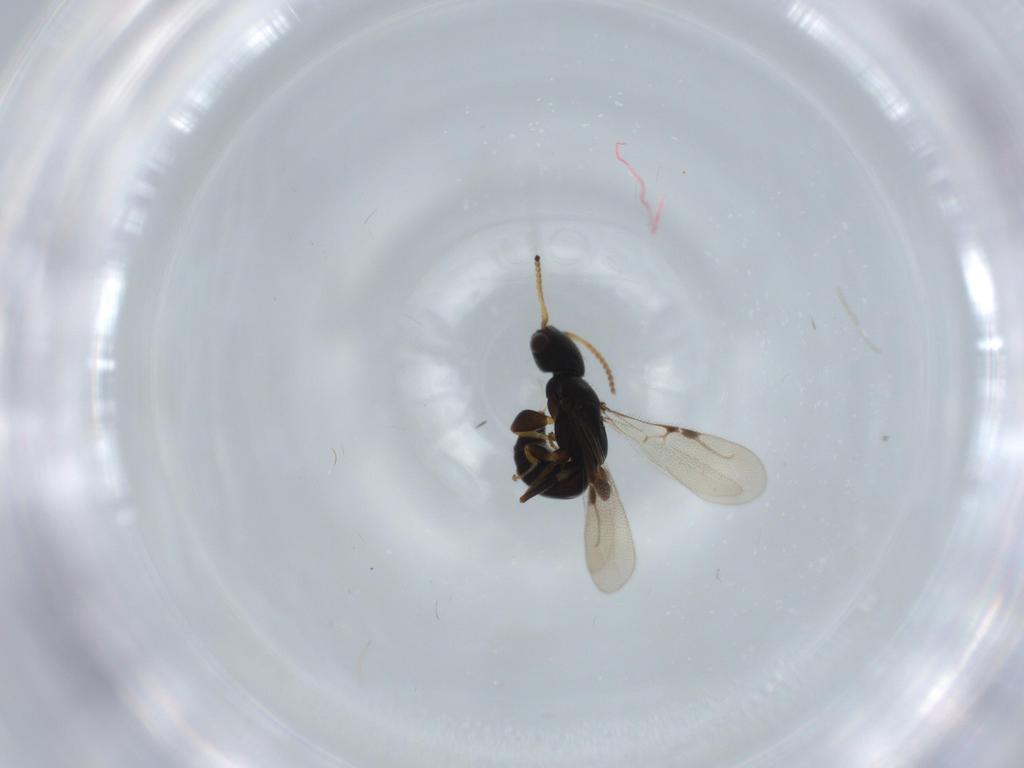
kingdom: Animalia
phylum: Arthropoda
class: Insecta
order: Hymenoptera
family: Bethylidae
